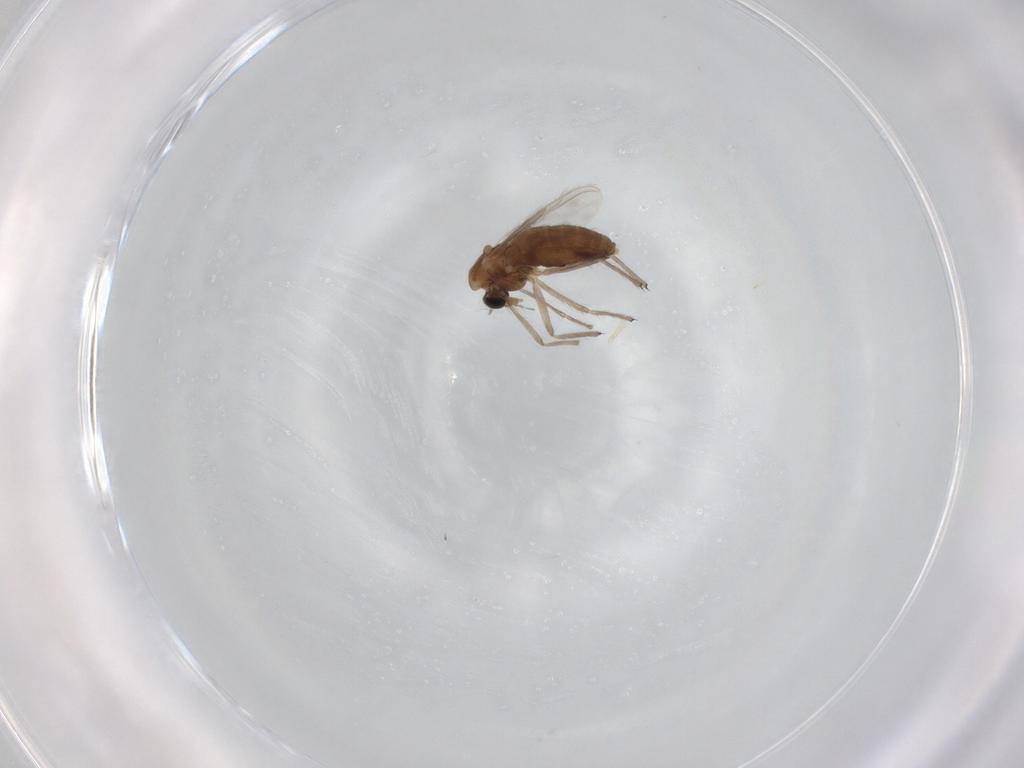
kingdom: Animalia
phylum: Arthropoda
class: Insecta
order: Diptera
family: Chironomidae
